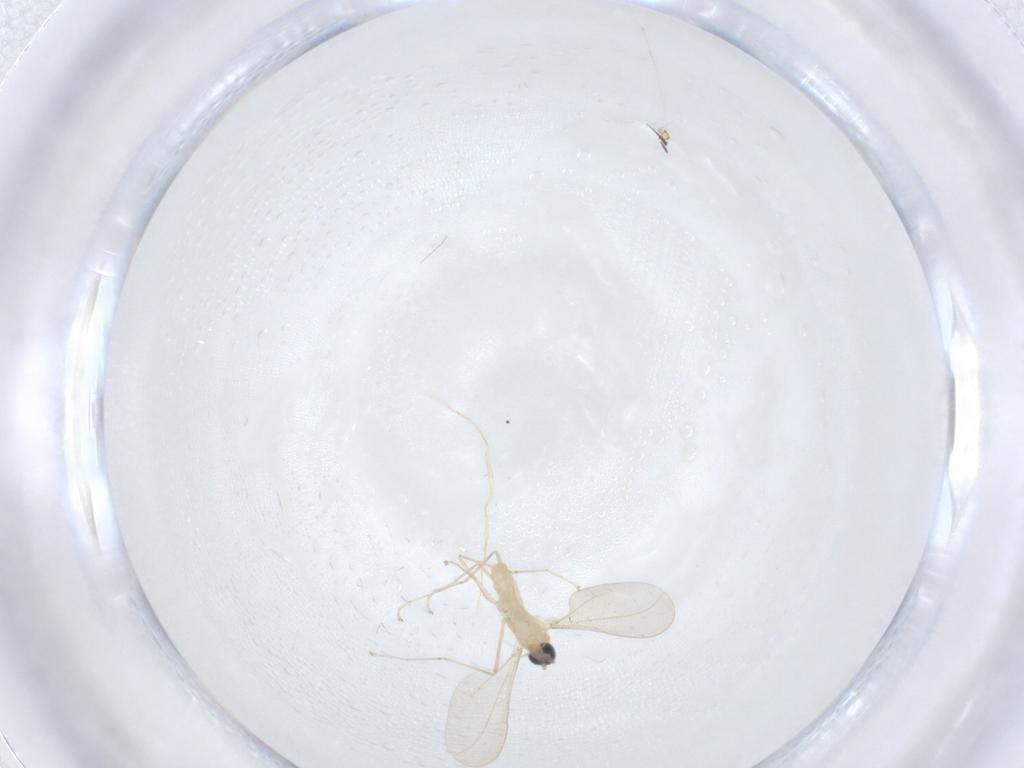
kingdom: Animalia
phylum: Arthropoda
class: Insecta
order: Diptera
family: Cecidomyiidae
